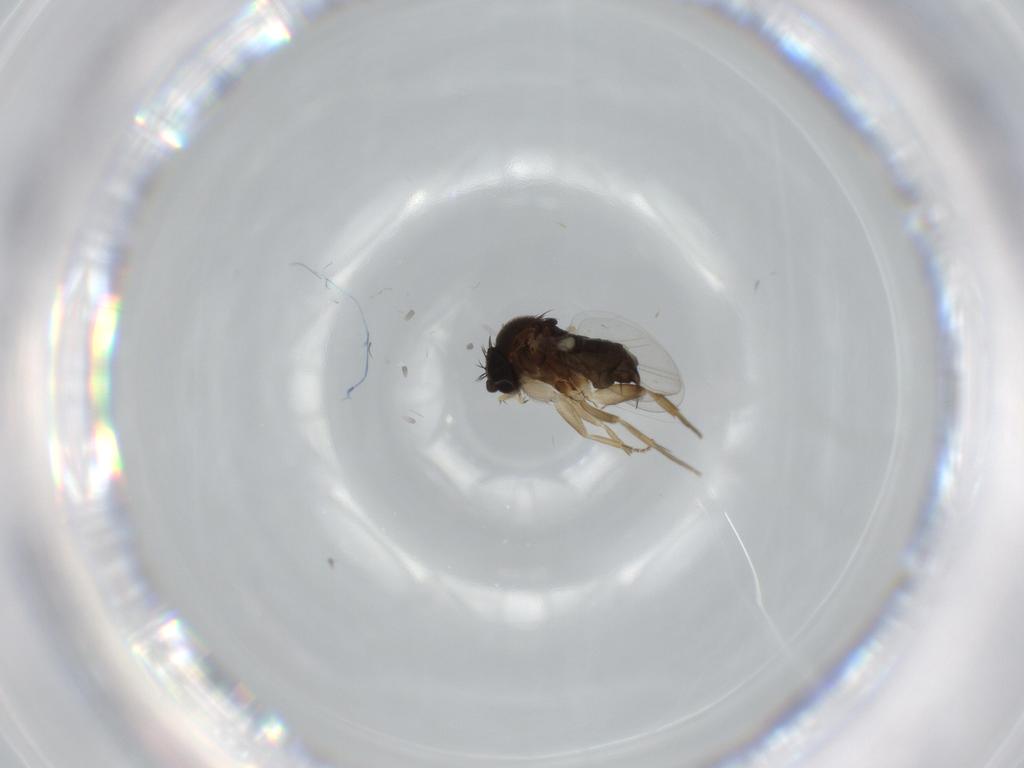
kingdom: Animalia
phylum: Arthropoda
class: Insecta
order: Diptera
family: Phoridae
